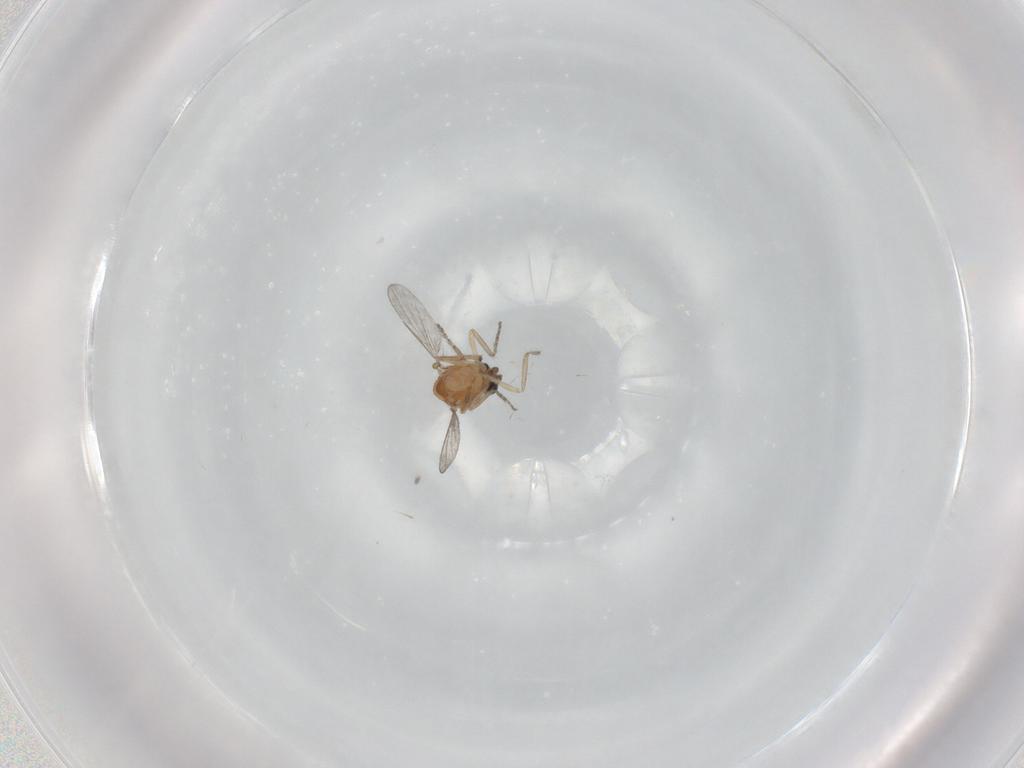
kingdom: Animalia
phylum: Arthropoda
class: Insecta
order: Diptera
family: Ceratopogonidae
